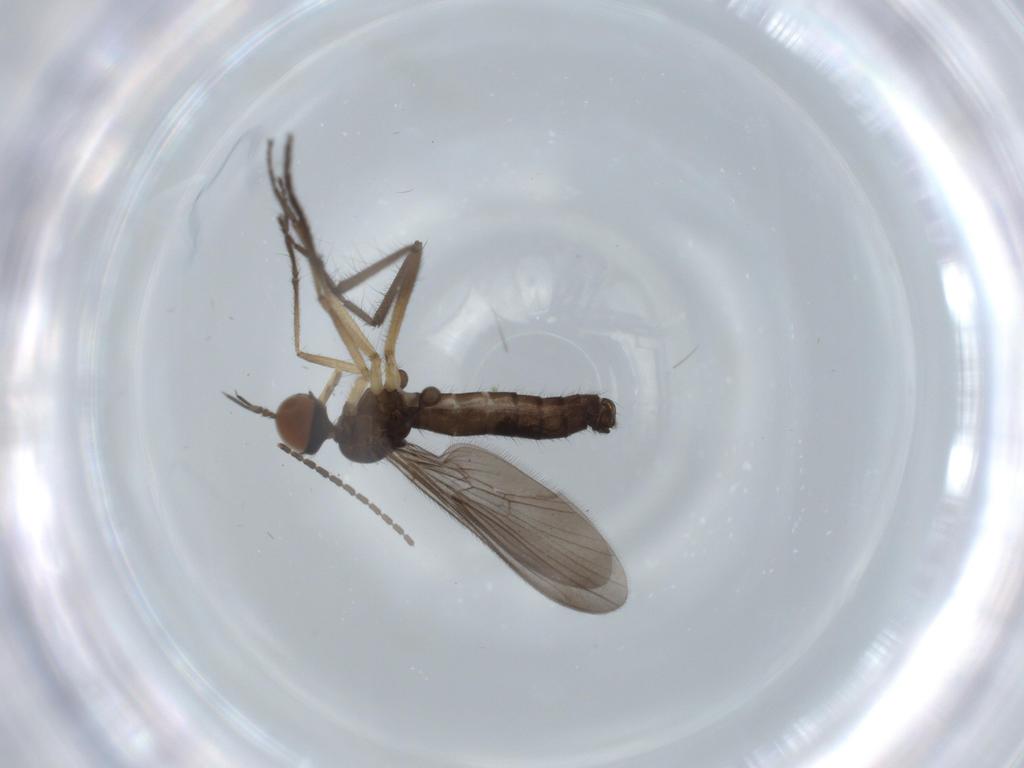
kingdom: Animalia
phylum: Arthropoda
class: Insecta
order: Diptera
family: Empididae
